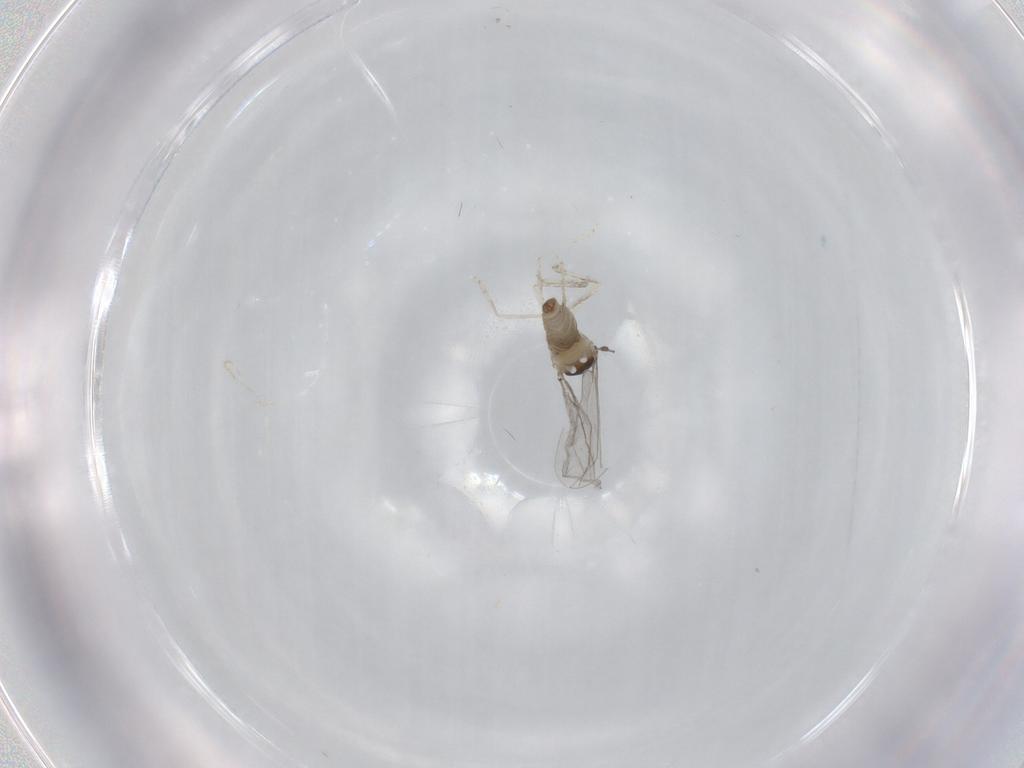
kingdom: Animalia
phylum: Arthropoda
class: Insecta
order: Diptera
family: Cecidomyiidae
